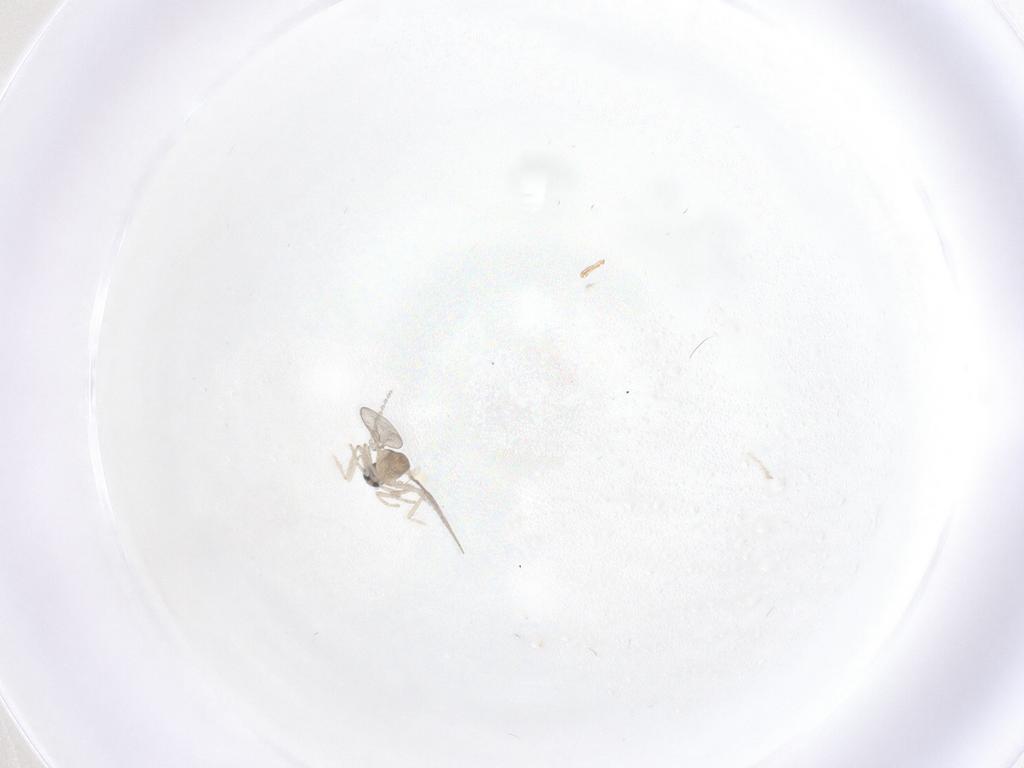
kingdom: Animalia
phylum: Arthropoda
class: Insecta
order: Diptera
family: Cecidomyiidae
